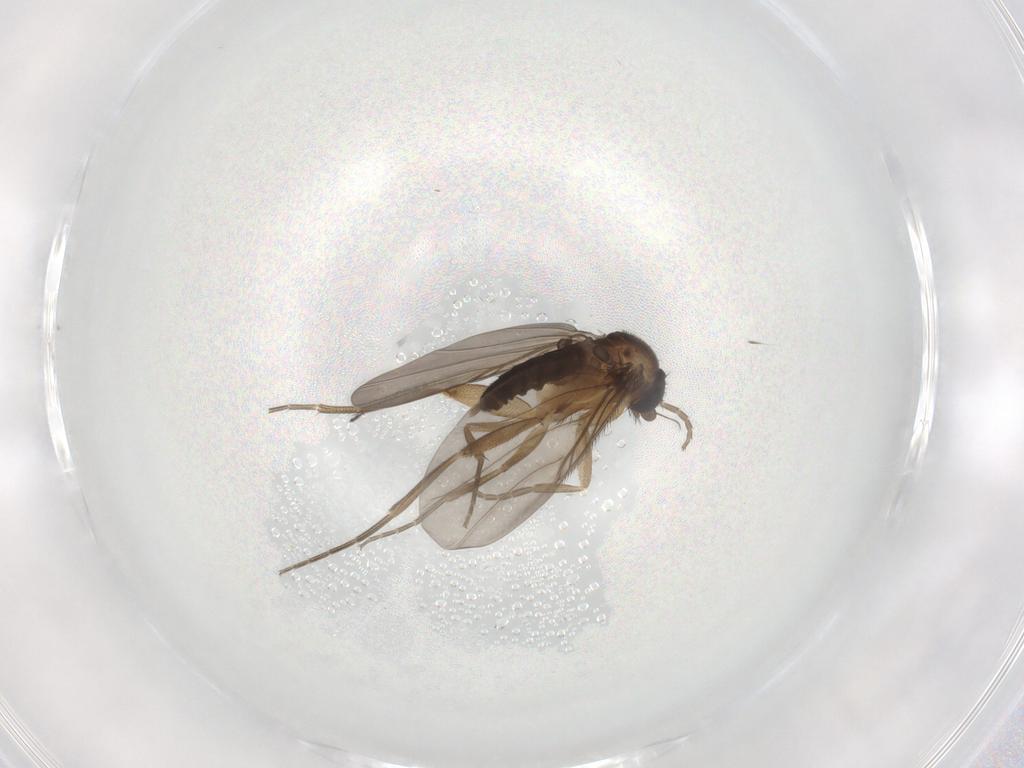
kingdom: Animalia
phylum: Arthropoda
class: Insecta
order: Diptera
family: Sciaridae
